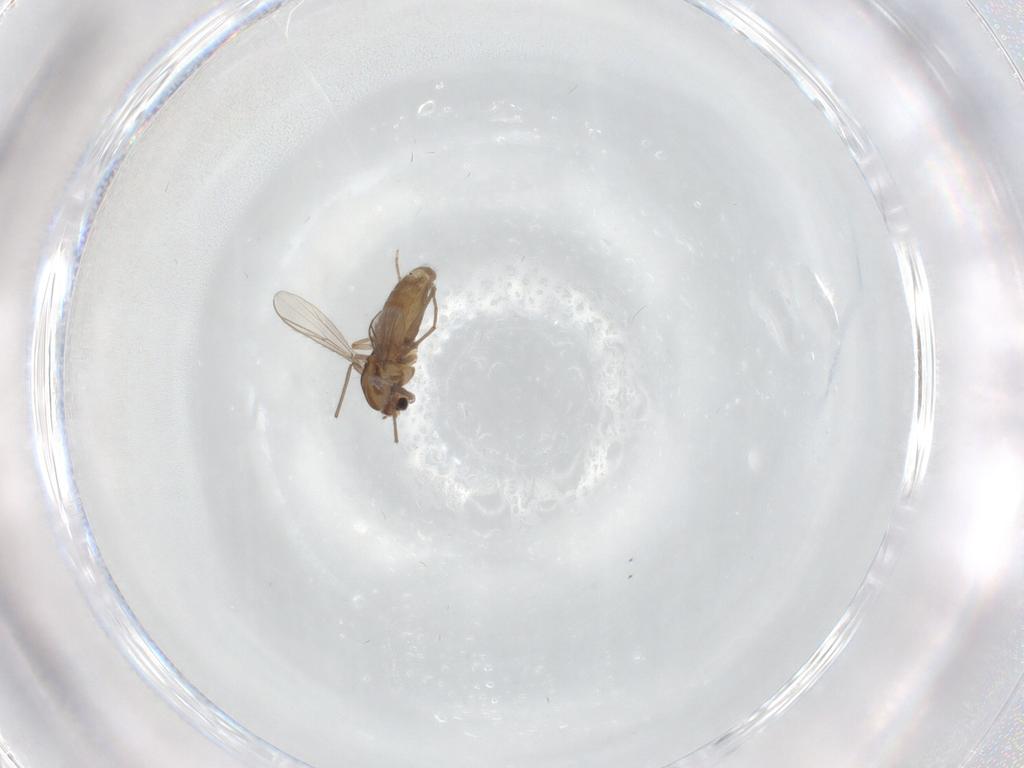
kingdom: Animalia
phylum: Arthropoda
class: Insecta
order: Diptera
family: Chironomidae
